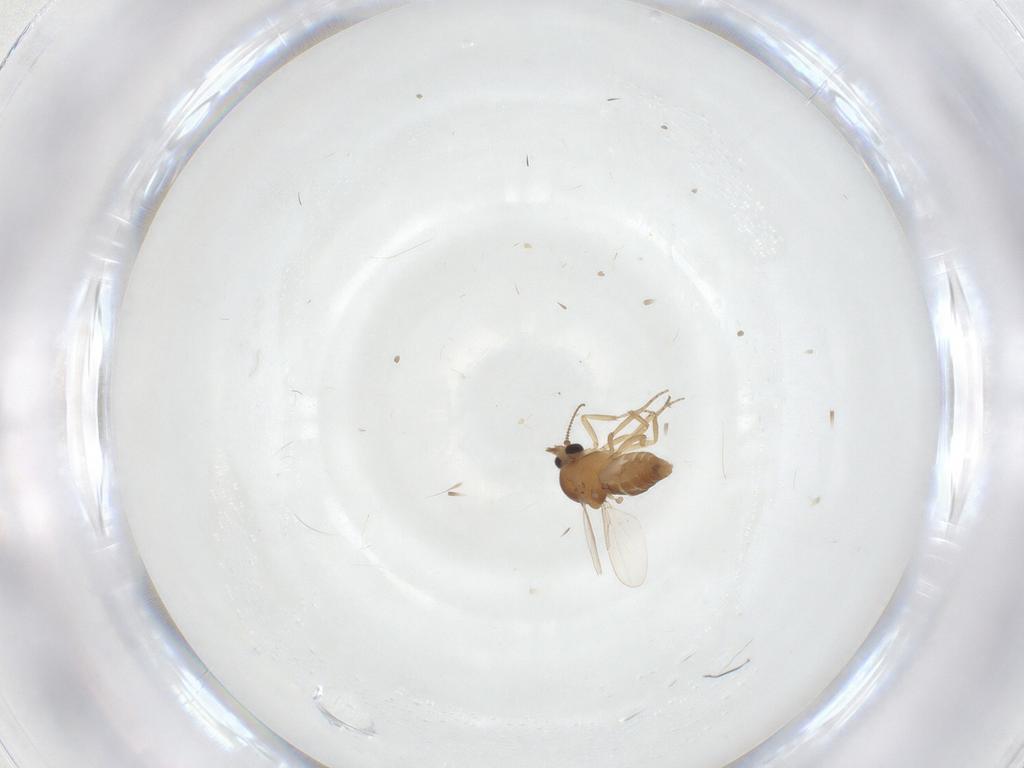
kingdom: Animalia
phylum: Arthropoda
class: Insecta
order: Diptera
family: Ceratopogonidae
